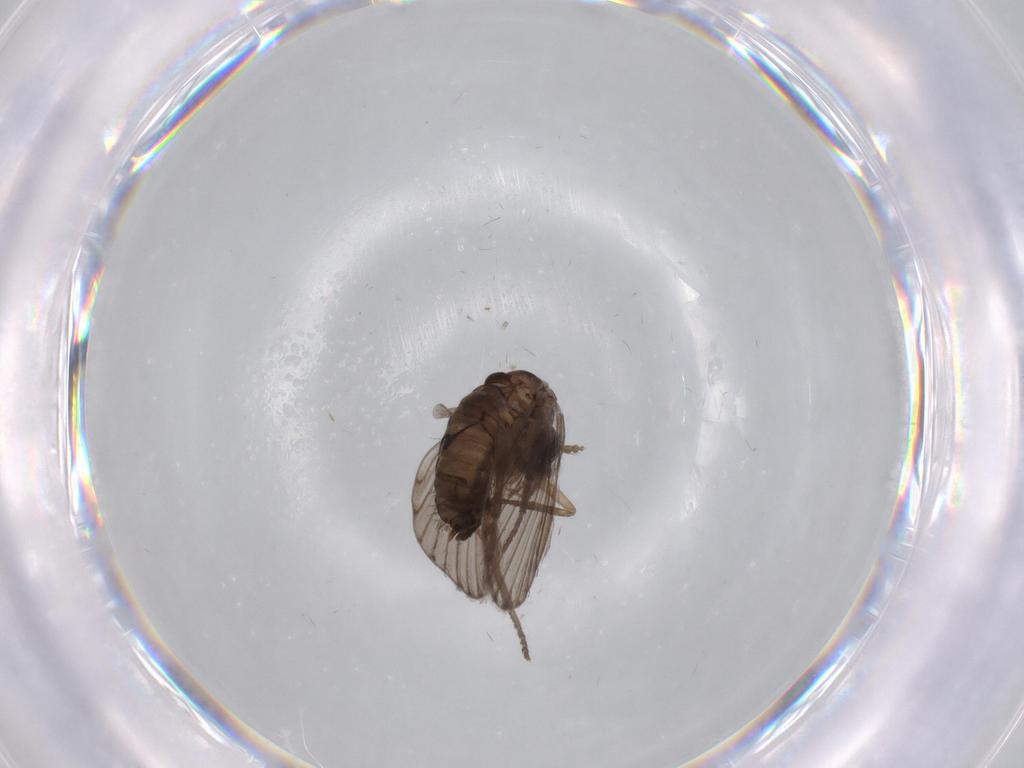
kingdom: Animalia
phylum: Arthropoda
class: Insecta
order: Diptera
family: Psychodidae
